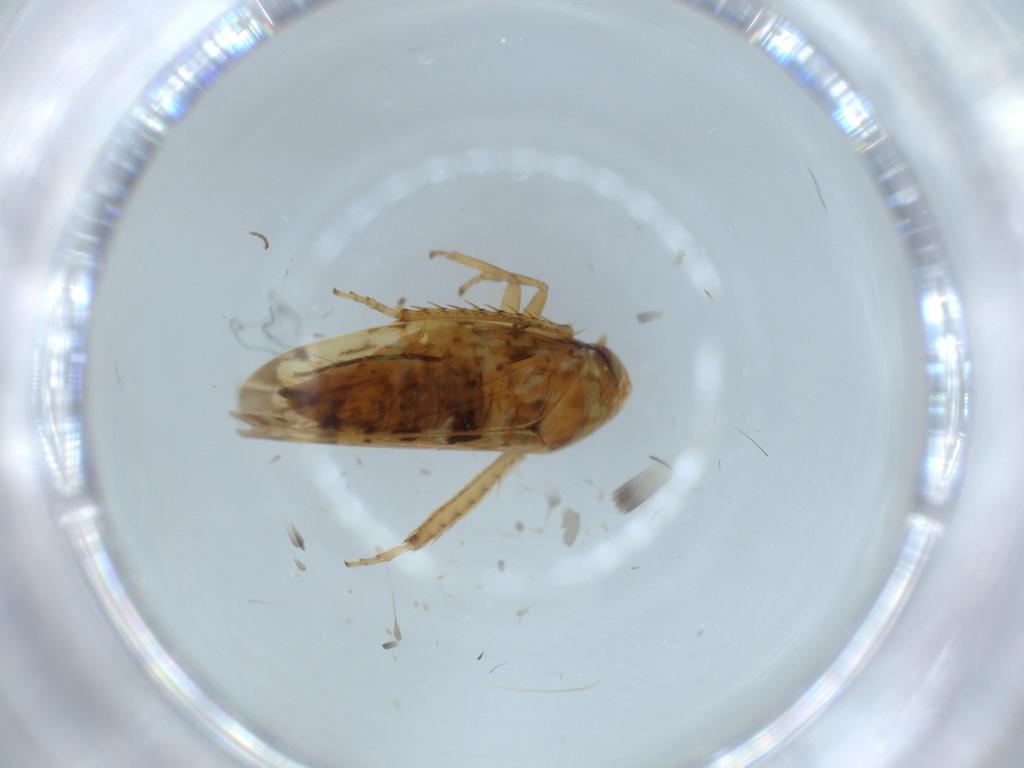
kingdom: Animalia
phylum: Arthropoda
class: Insecta
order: Hemiptera
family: Cicadellidae
